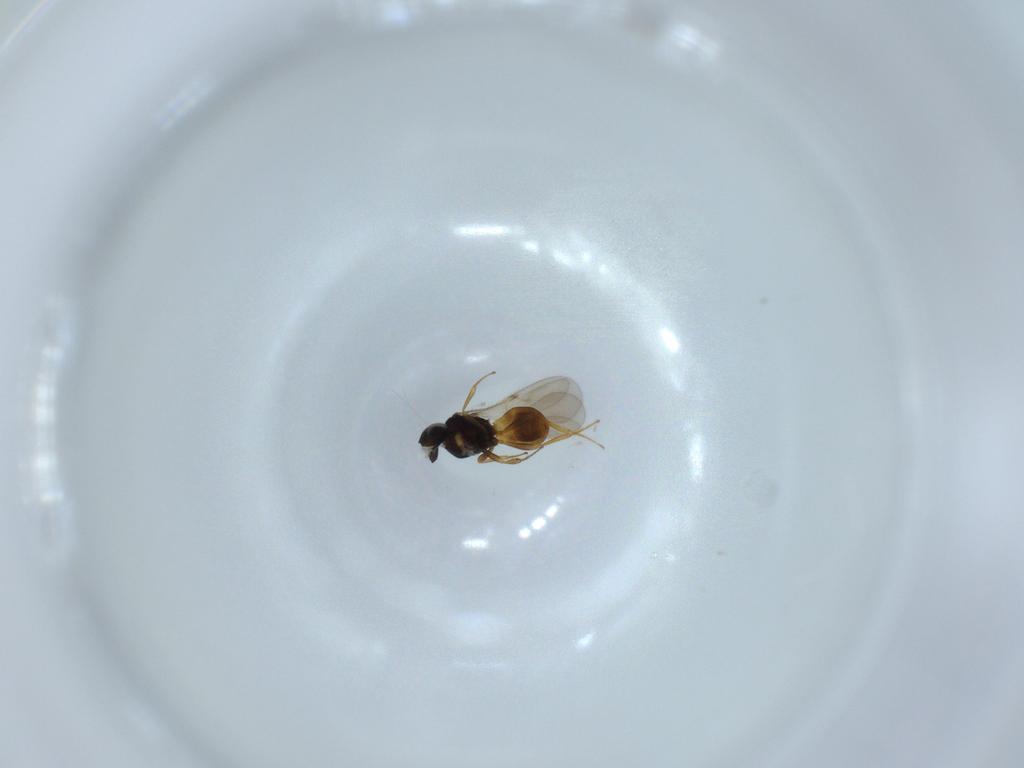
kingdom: Animalia
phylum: Arthropoda
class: Insecta
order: Hymenoptera
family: Scelionidae
